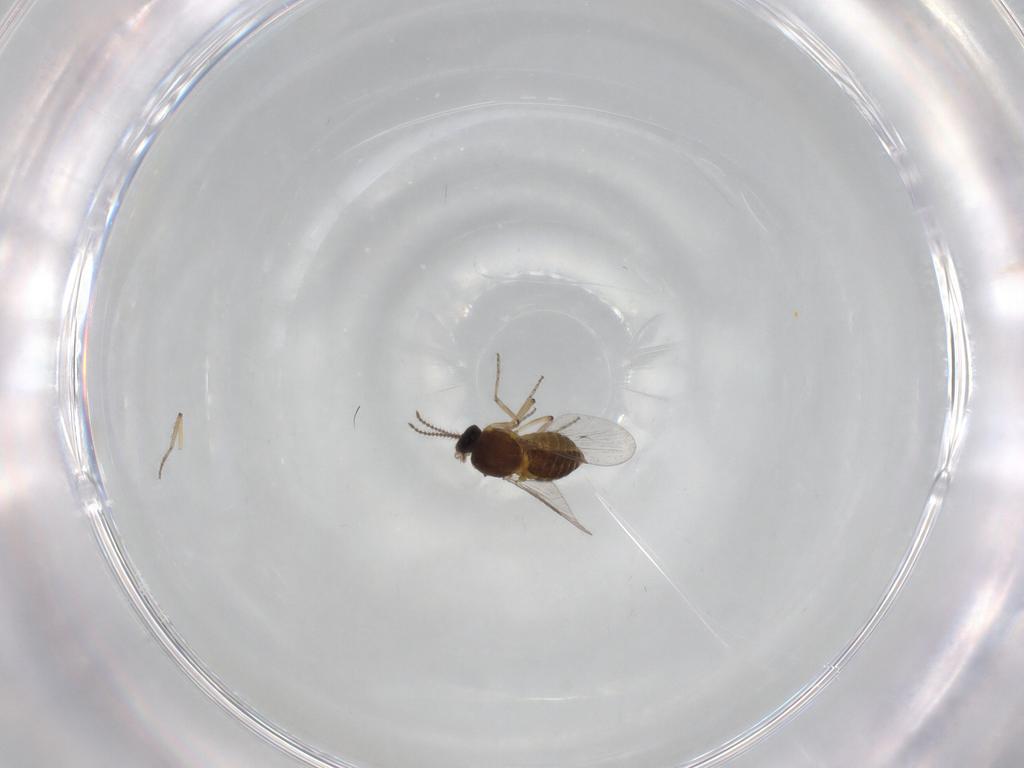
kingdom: Animalia
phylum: Arthropoda
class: Insecta
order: Diptera
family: Ceratopogonidae
